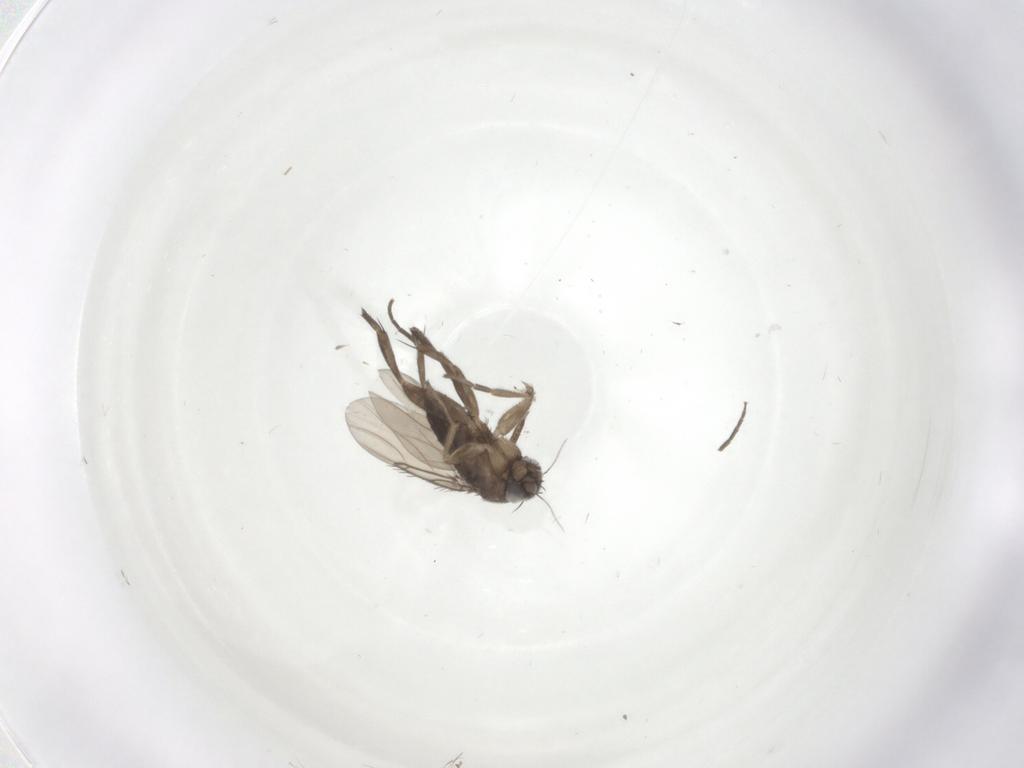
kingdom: Animalia
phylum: Arthropoda
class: Insecta
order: Diptera
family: Phoridae
